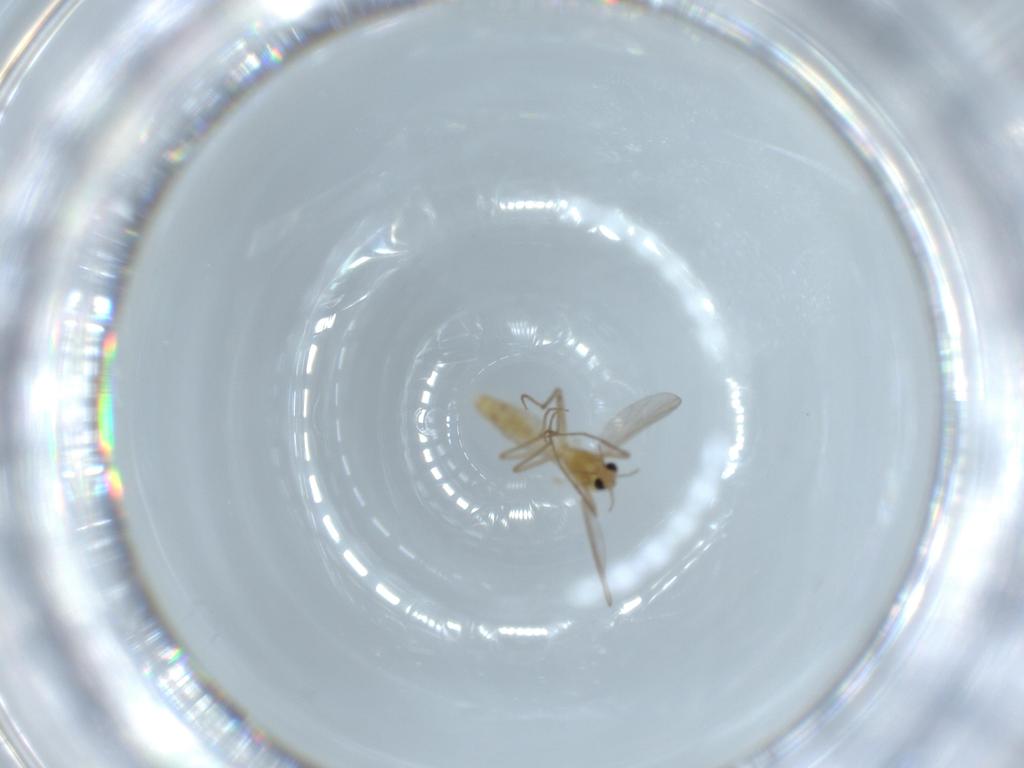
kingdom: Animalia
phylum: Arthropoda
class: Insecta
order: Diptera
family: Chironomidae
